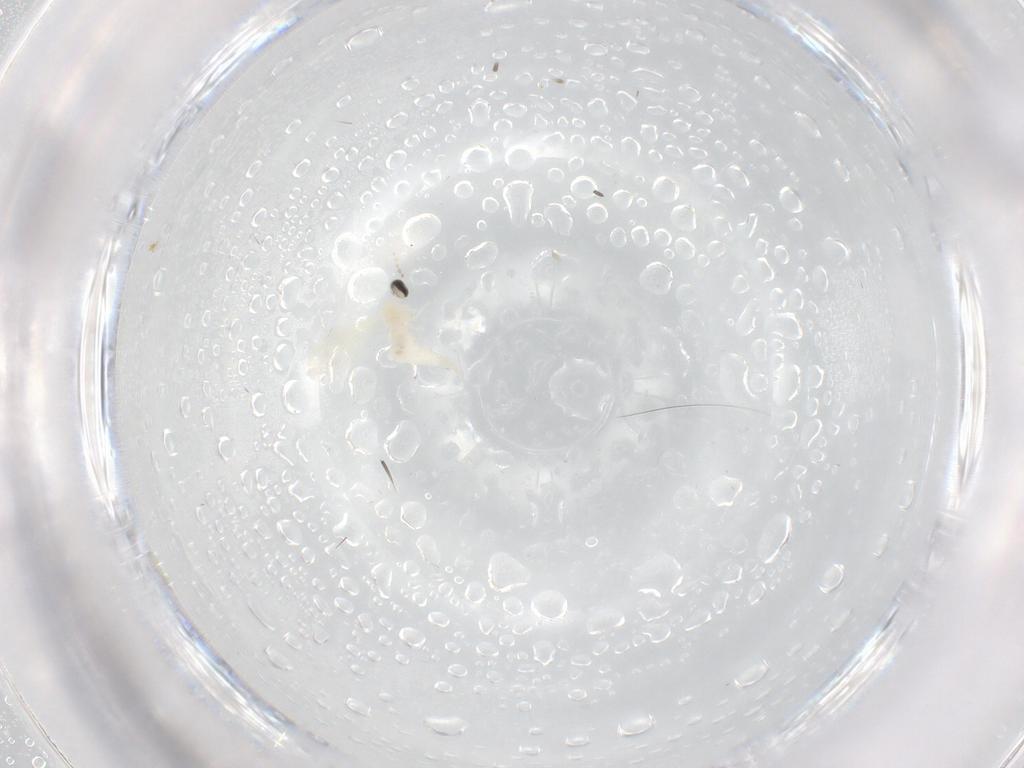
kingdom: Animalia
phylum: Arthropoda
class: Insecta
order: Diptera
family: Cecidomyiidae
